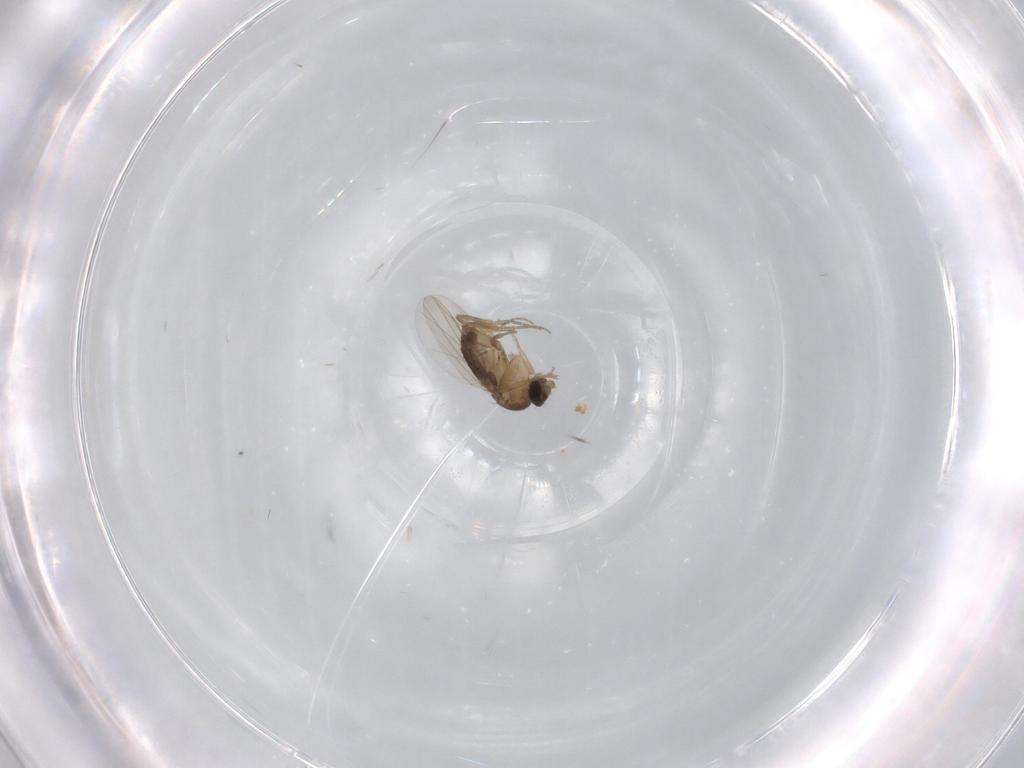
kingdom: Animalia
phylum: Arthropoda
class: Insecta
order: Diptera
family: Phoridae
